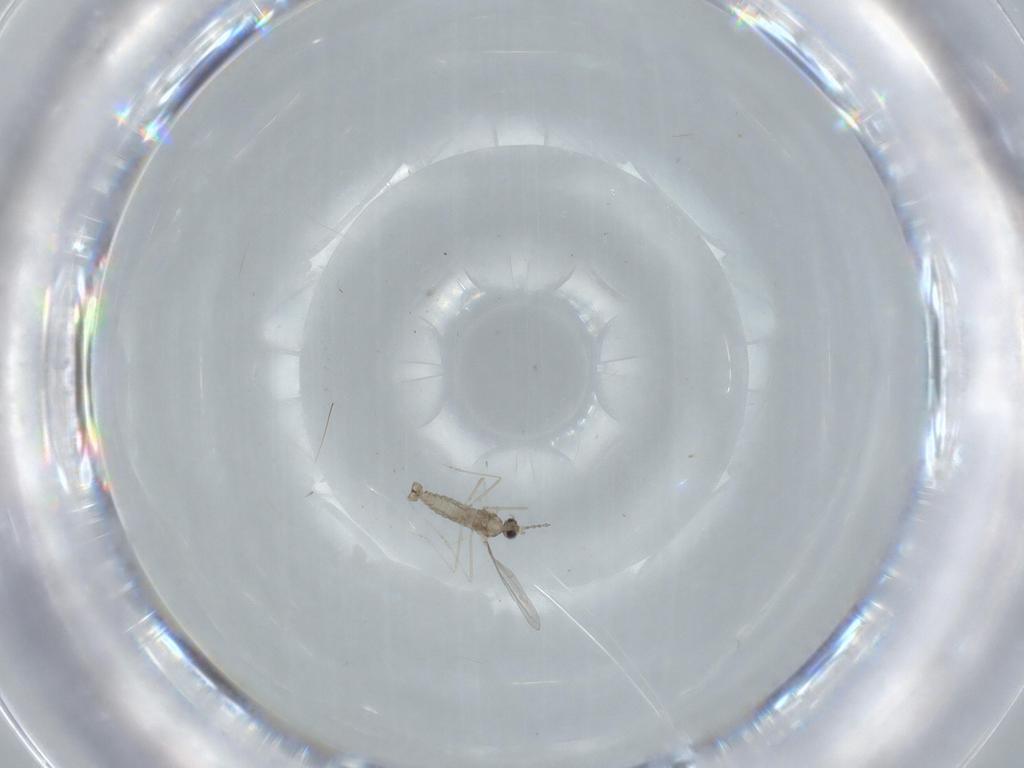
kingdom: Animalia
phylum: Arthropoda
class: Insecta
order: Diptera
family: Cecidomyiidae
